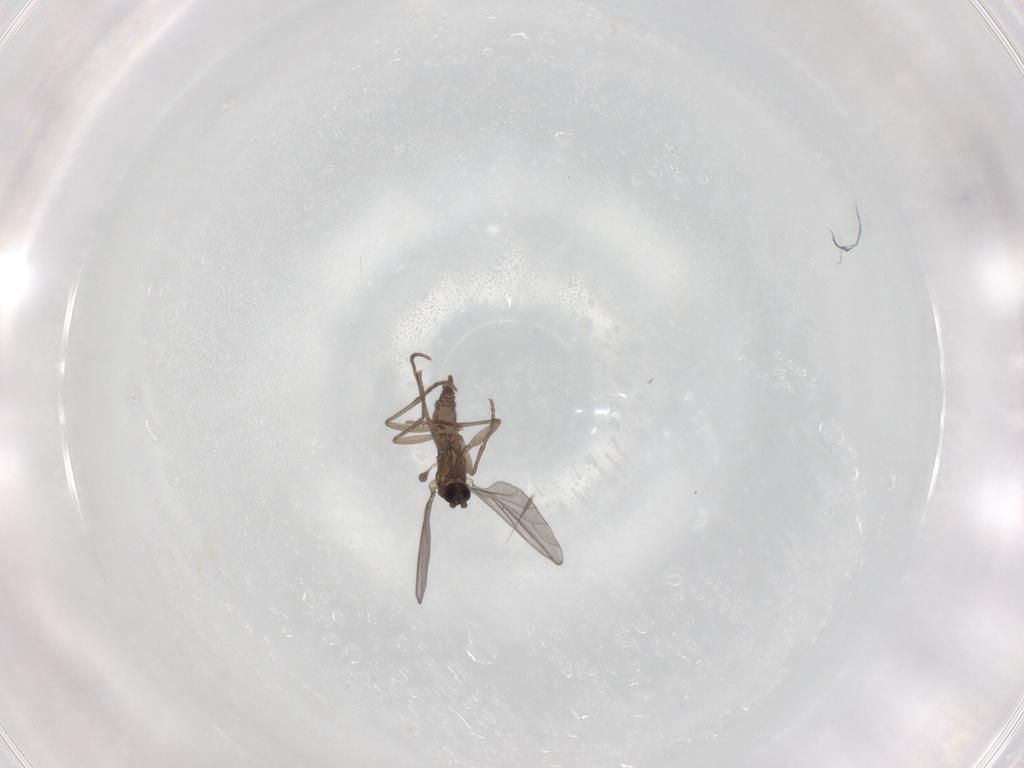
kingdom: Animalia
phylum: Arthropoda
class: Insecta
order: Diptera
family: Sciaridae
